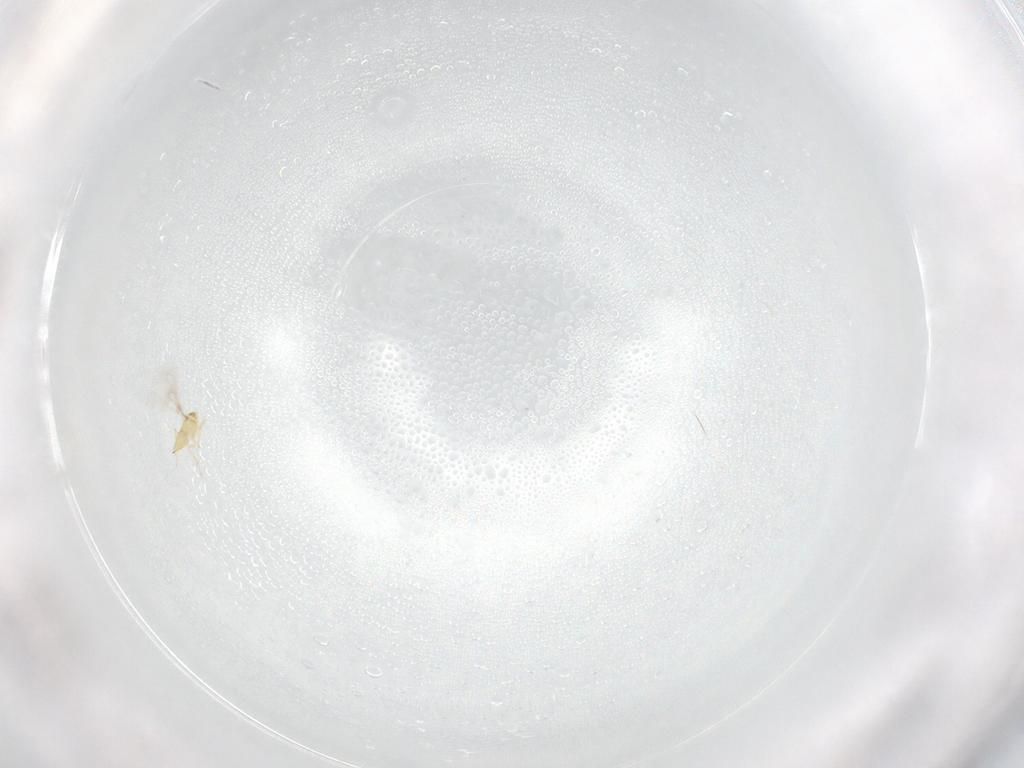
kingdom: Animalia
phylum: Arthropoda
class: Insecta
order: Hymenoptera
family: Mymaridae
